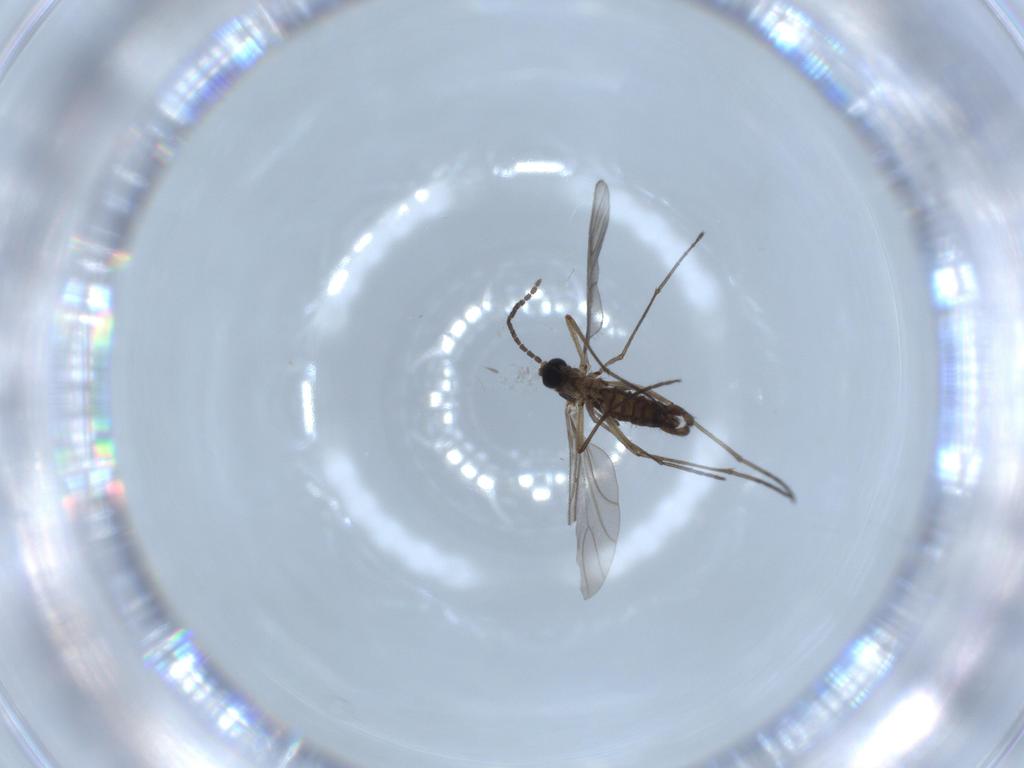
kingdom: Animalia
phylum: Arthropoda
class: Insecta
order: Diptera
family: Sciaridae
